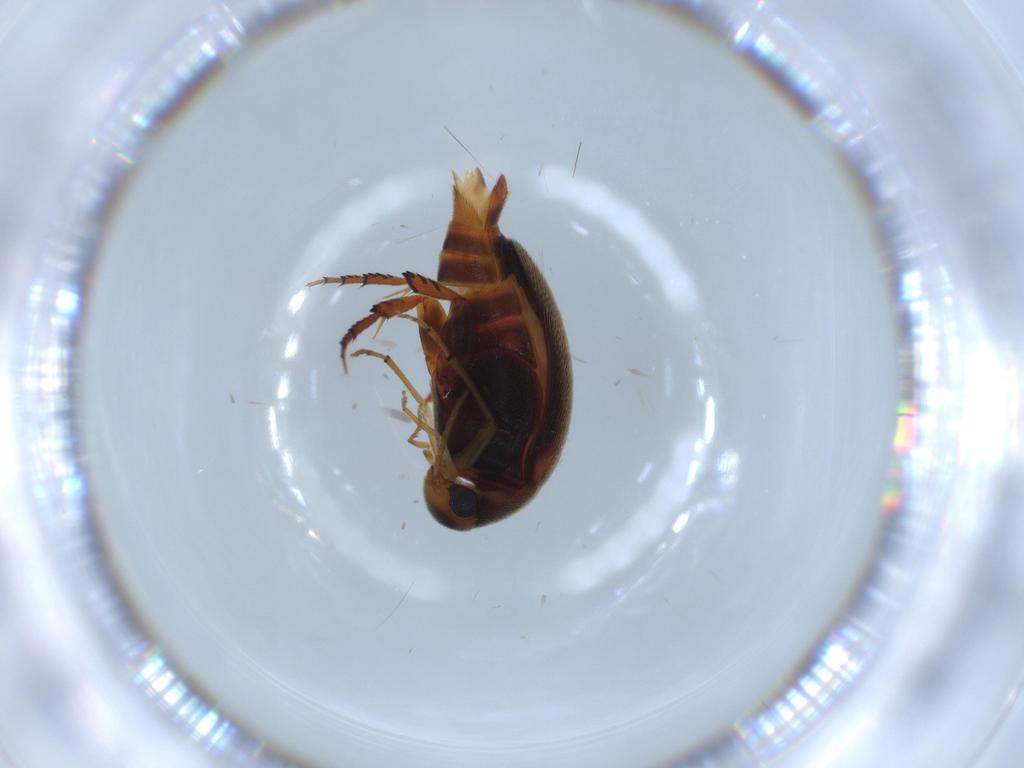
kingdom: Animalia
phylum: Arthropoda
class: Insecta
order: Coleoptera
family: Mordellidae
